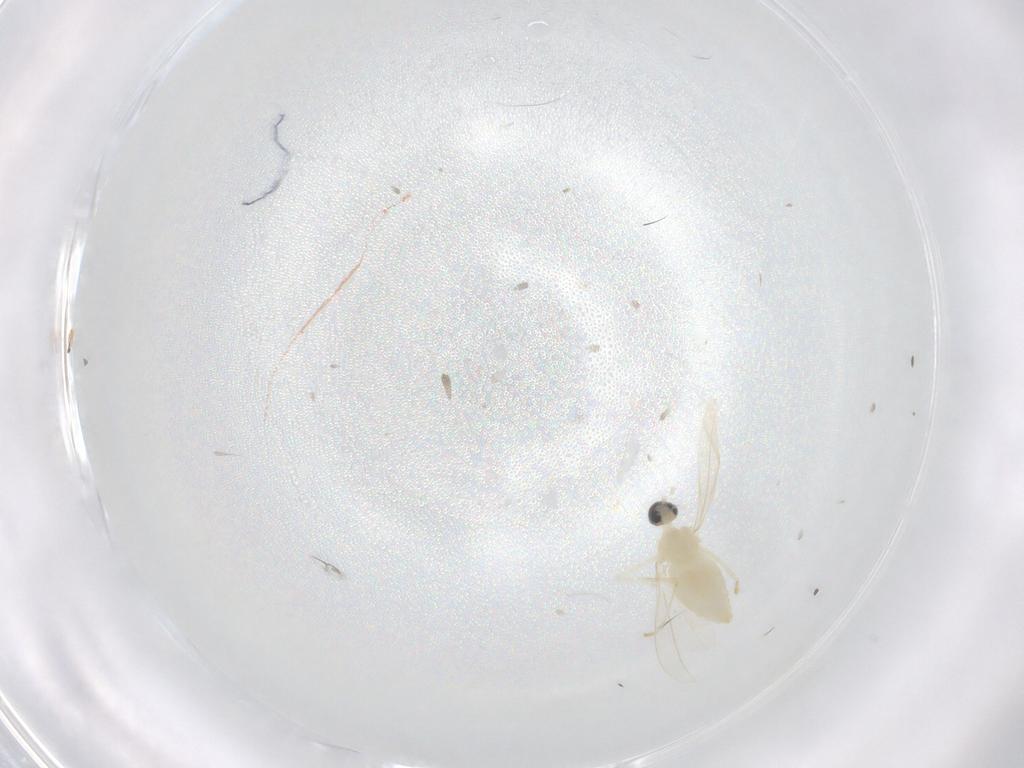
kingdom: Animalia
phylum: Arthropoda
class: Insecta
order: Diptera
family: Cecidomyiidae
